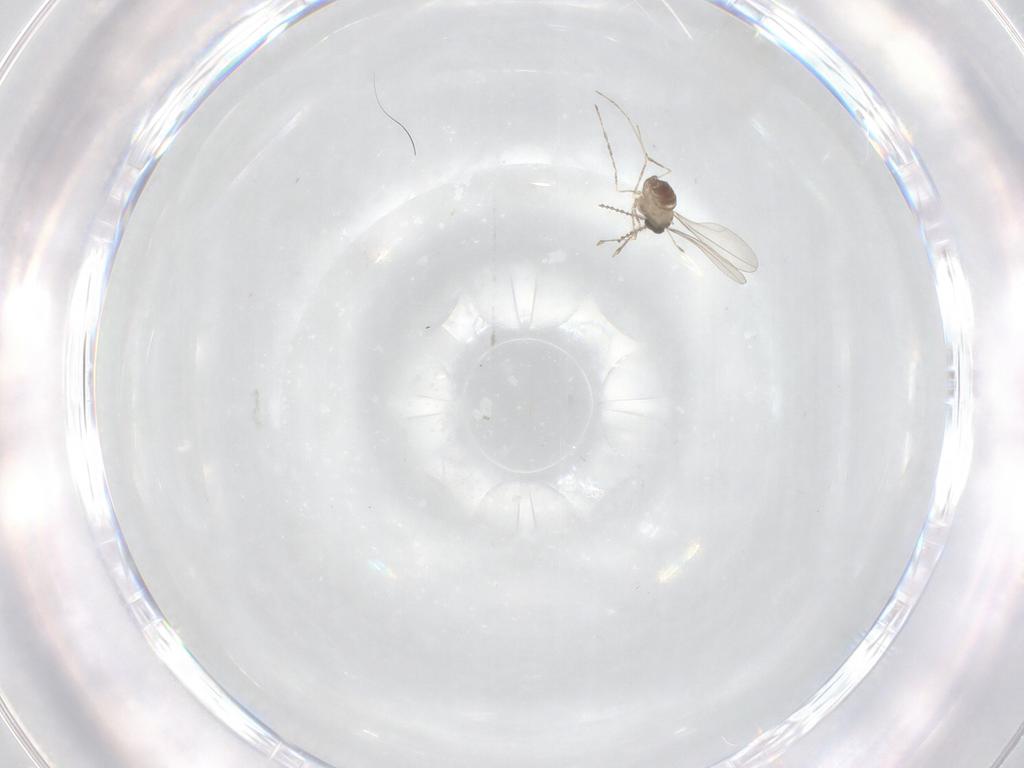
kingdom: Animalia
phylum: Arthropoda
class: Insecta
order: Diptera
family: Cecidomyiidae
